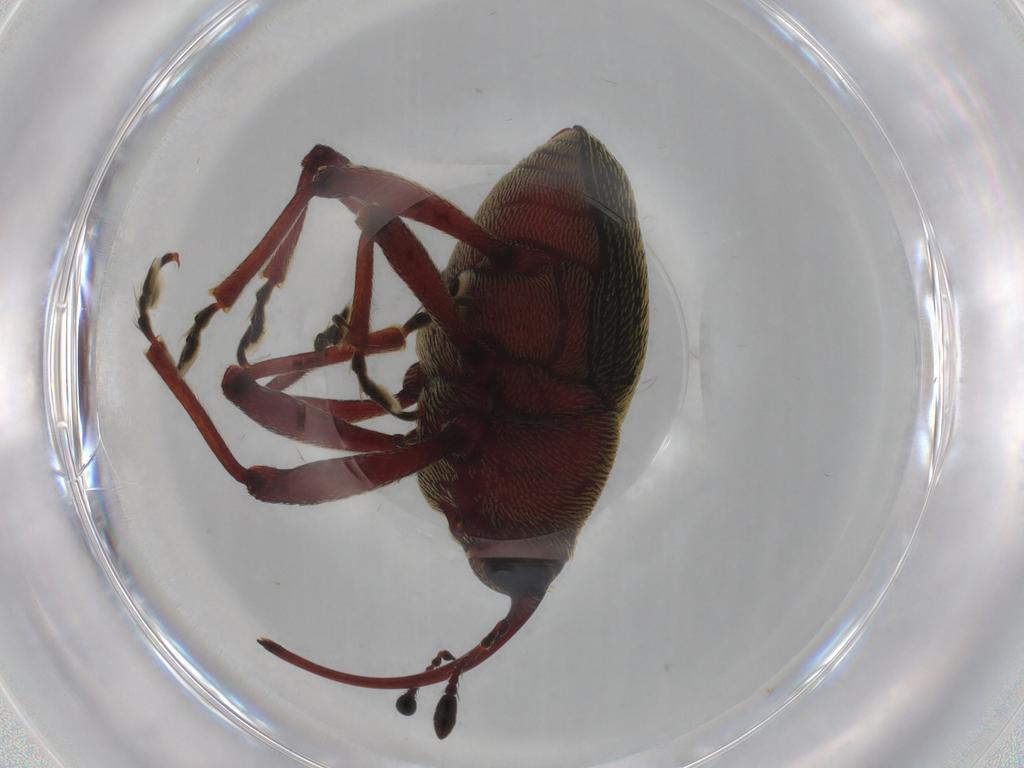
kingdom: Animalia
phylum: Arthropoda
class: Insecta
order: Coleoptera
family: Curculionidae
